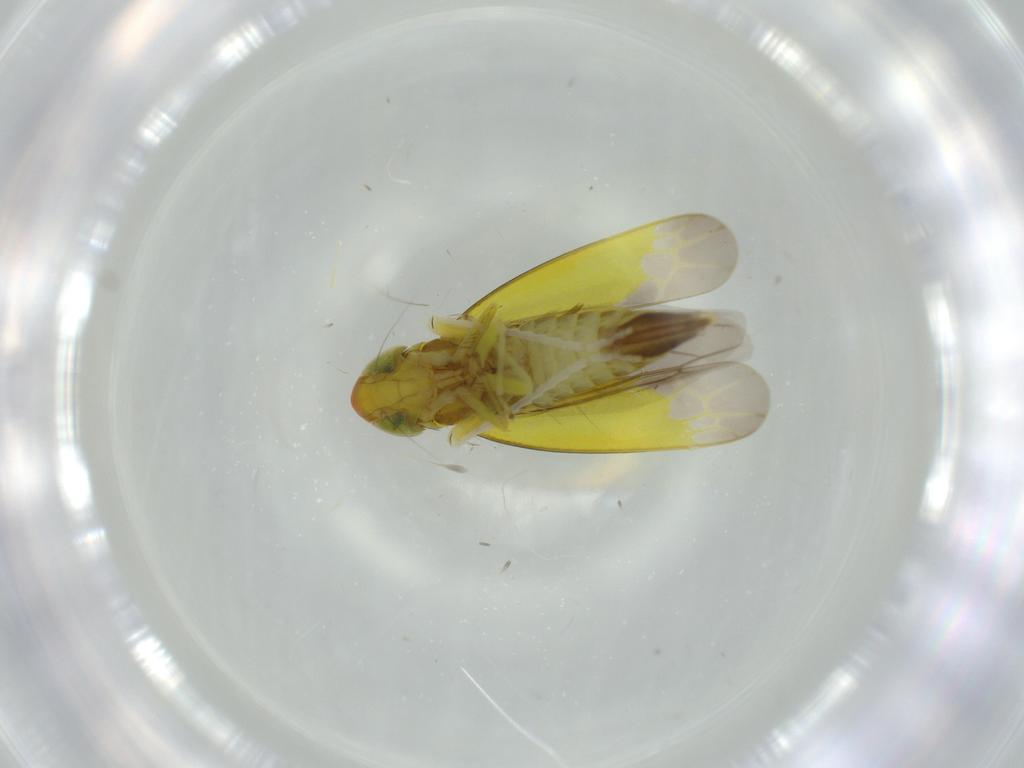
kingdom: Animalia
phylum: Arthropoda
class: Insecta
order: Hemiptera
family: Cicadellidae
